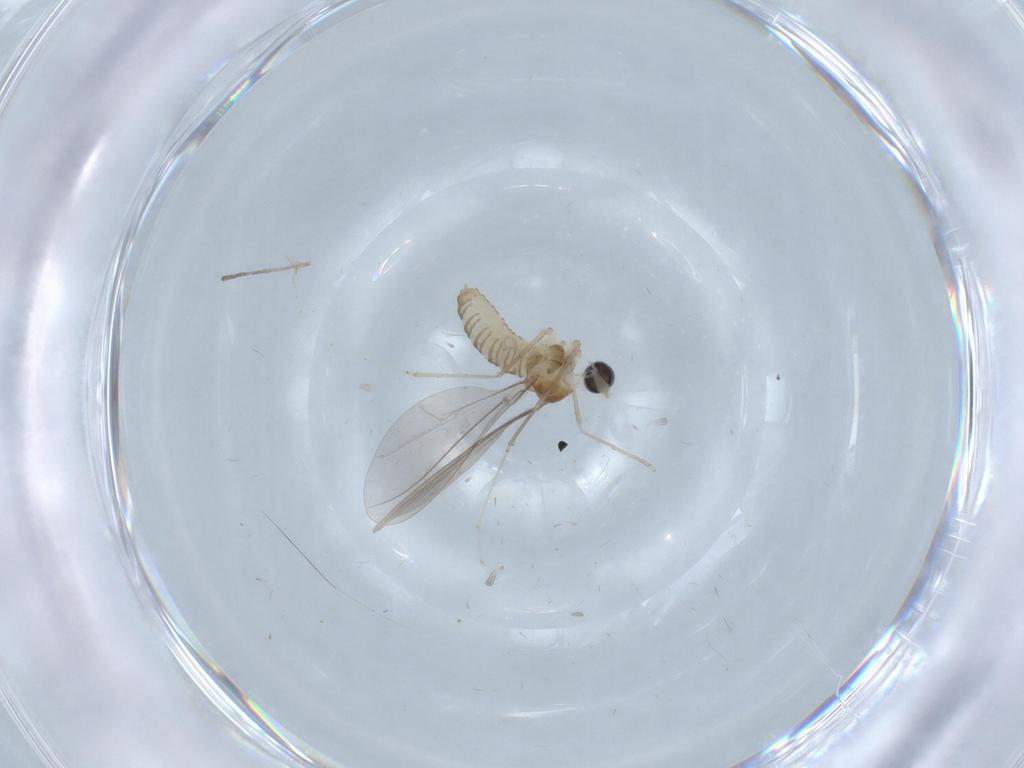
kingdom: Animalia
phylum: Arthropoda
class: Insecta
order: Diptera
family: Cecidomyiidae
